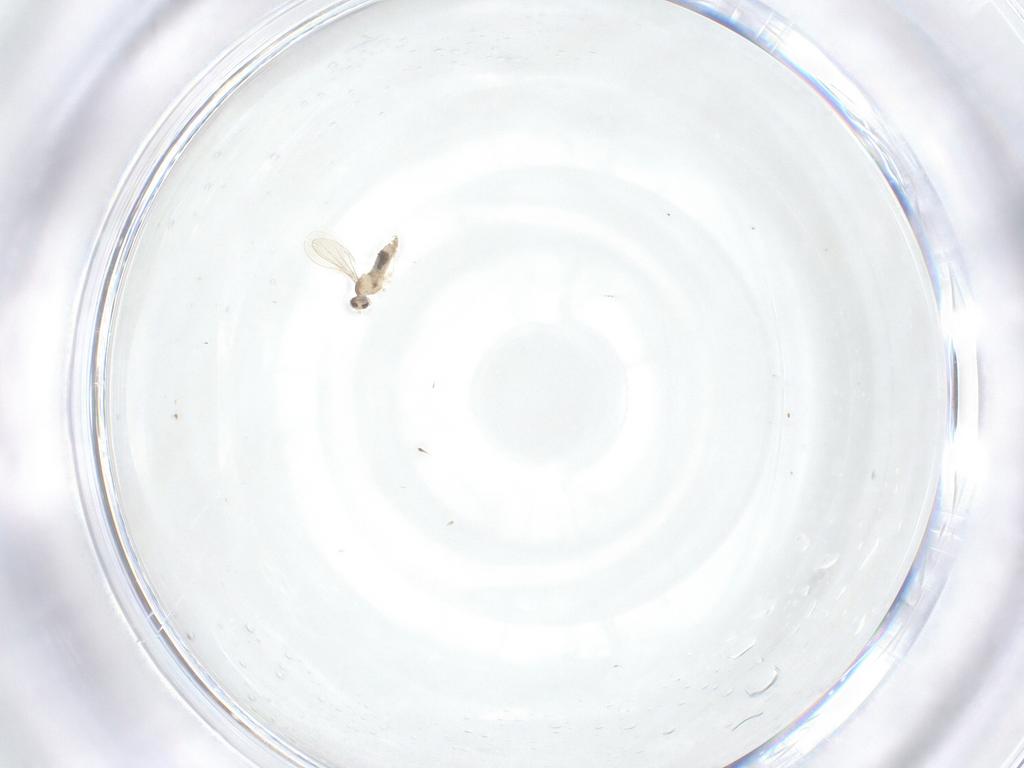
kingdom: Animalia
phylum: Arthropoda
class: Insecta
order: Diptera
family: Cecidomyiidae
